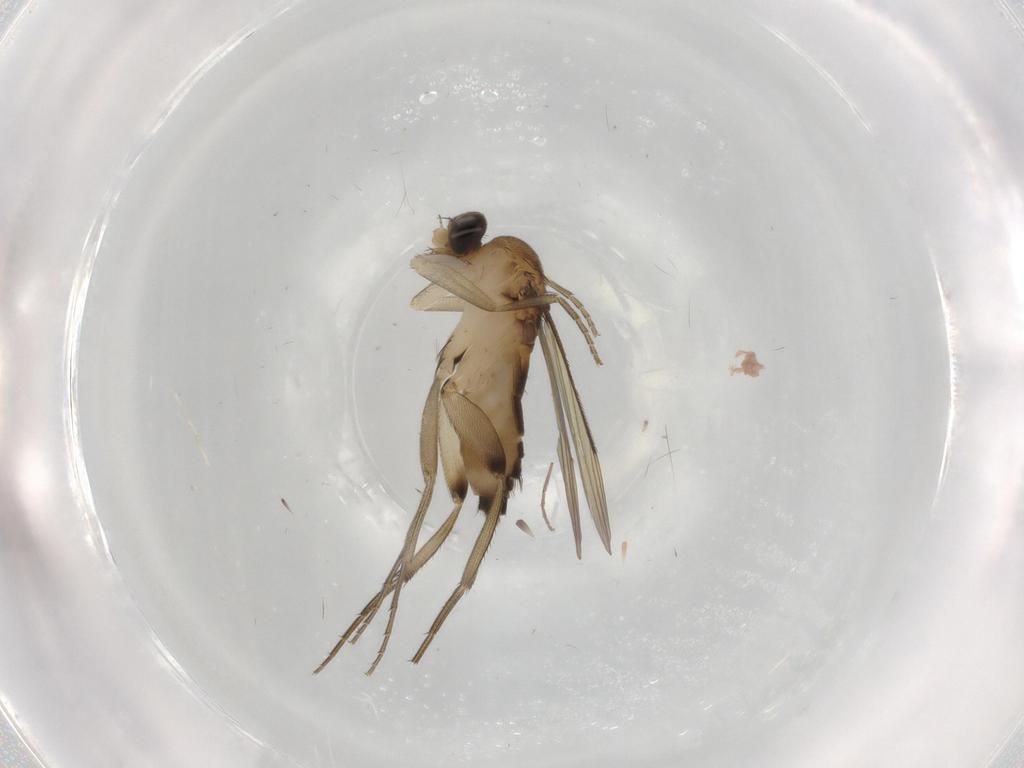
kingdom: Animalia
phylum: Arthropoda
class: Insecta
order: Diptera
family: Phoridae
